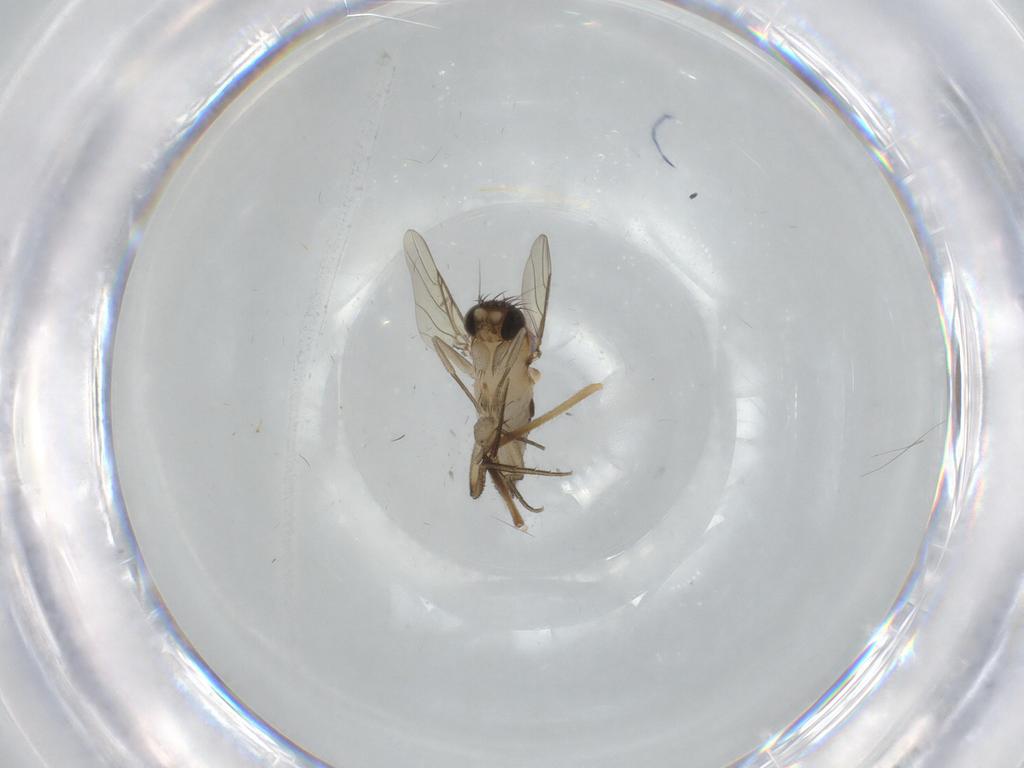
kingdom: Animalia
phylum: Arthropoda
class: Insecta
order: Diptera
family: Phoridae
